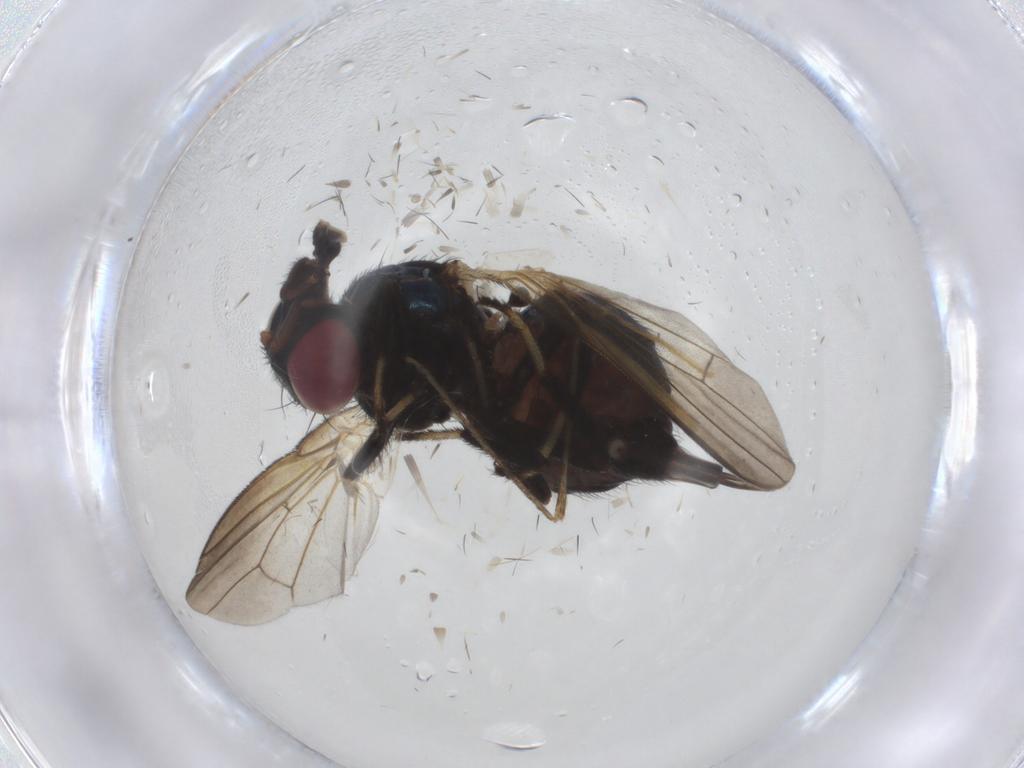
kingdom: Animalia
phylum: Arthropoda
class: Insecta
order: Diptera
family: Lonchaeidae
